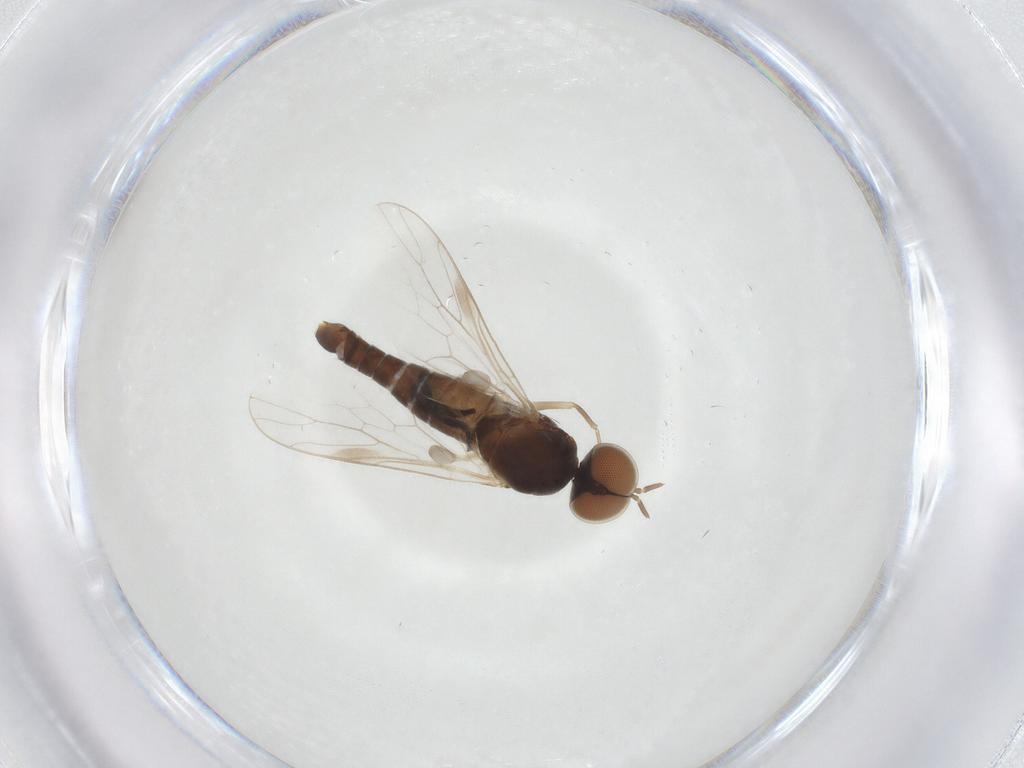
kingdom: Animalia
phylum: Arthropoda
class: Insecta
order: Diptera
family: Scenopinidae
